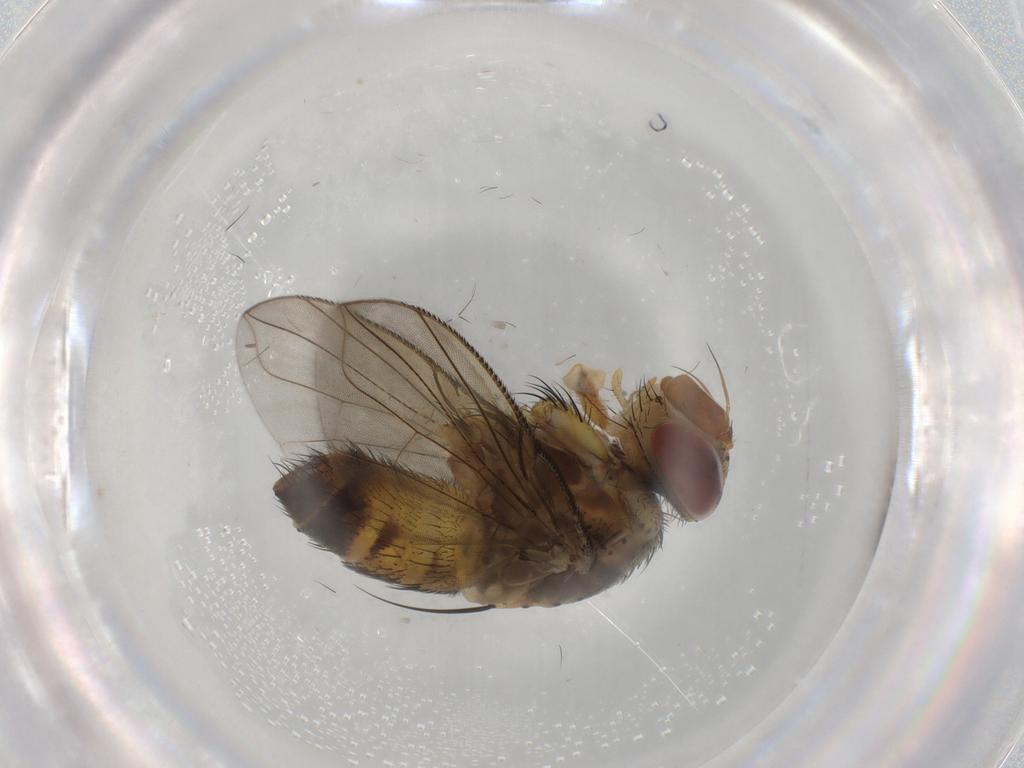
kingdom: Animalia
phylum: Arthropoda
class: Insecta
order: Diptera
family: Tachinidae
